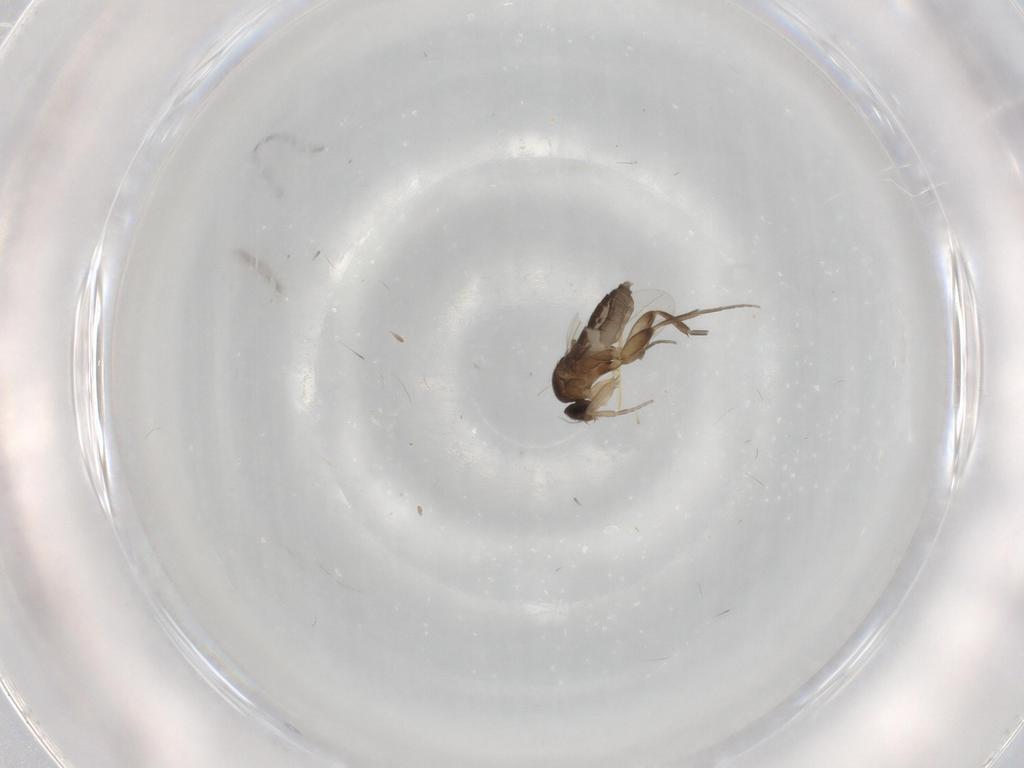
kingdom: Animalia
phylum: Arthropoda
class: Insecta
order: Diptera
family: Phoridae
